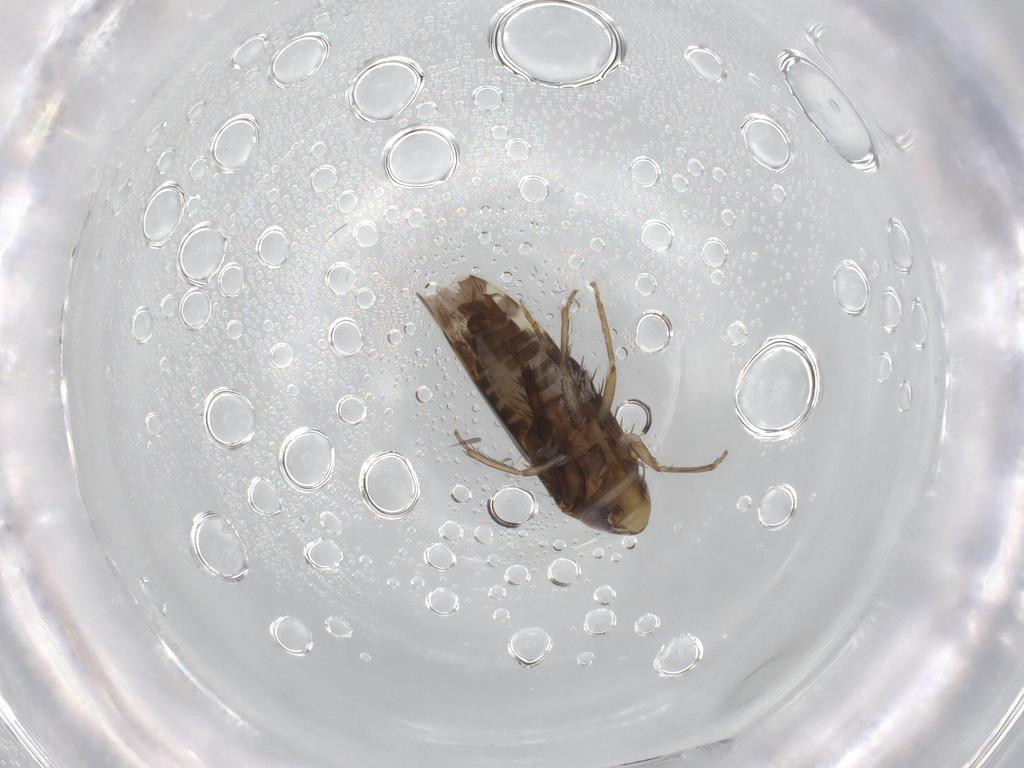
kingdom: Animalia
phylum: Arthropoda
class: Insecta
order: Hemiptera
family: Cicadellidae
